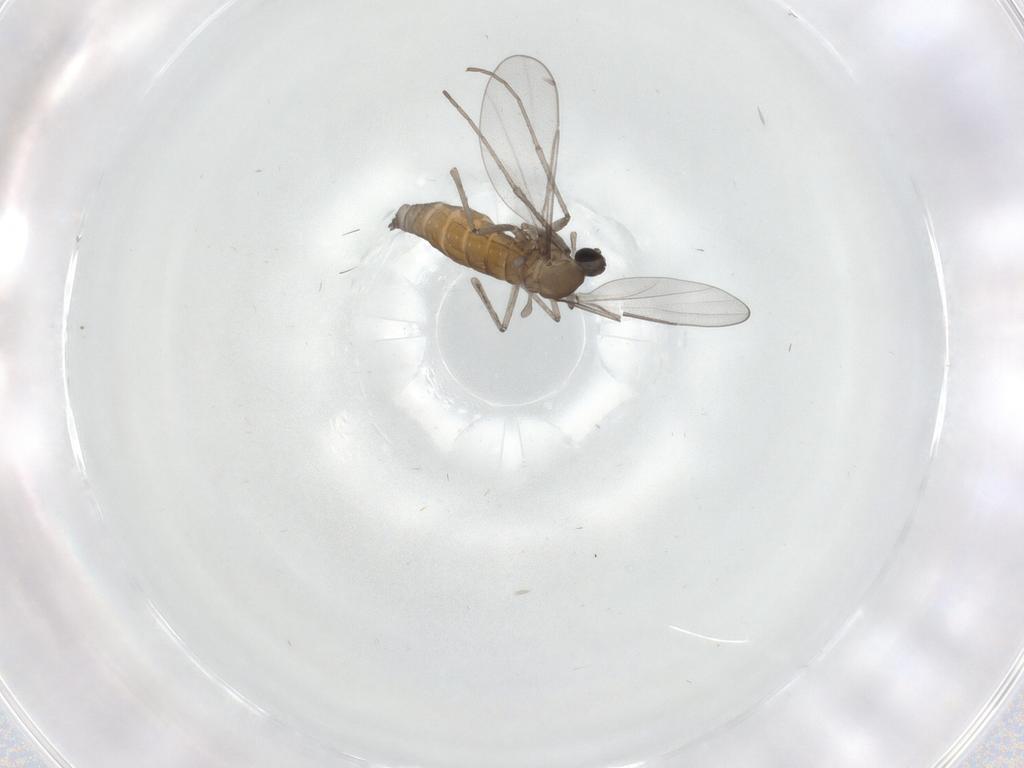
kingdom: Animalia
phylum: Arthropoda
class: Insecta
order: Diptera
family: Cecidomyiidae
